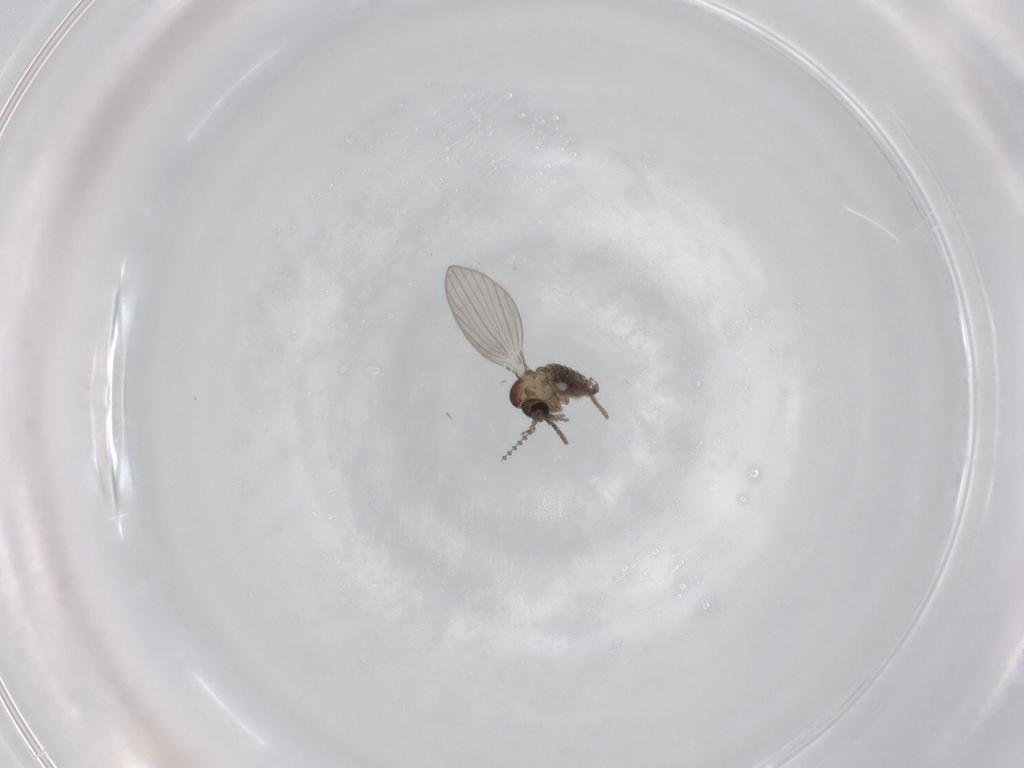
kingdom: Animalia
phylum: Arthropoda
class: Insecta
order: Diptera
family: Psychodidae
